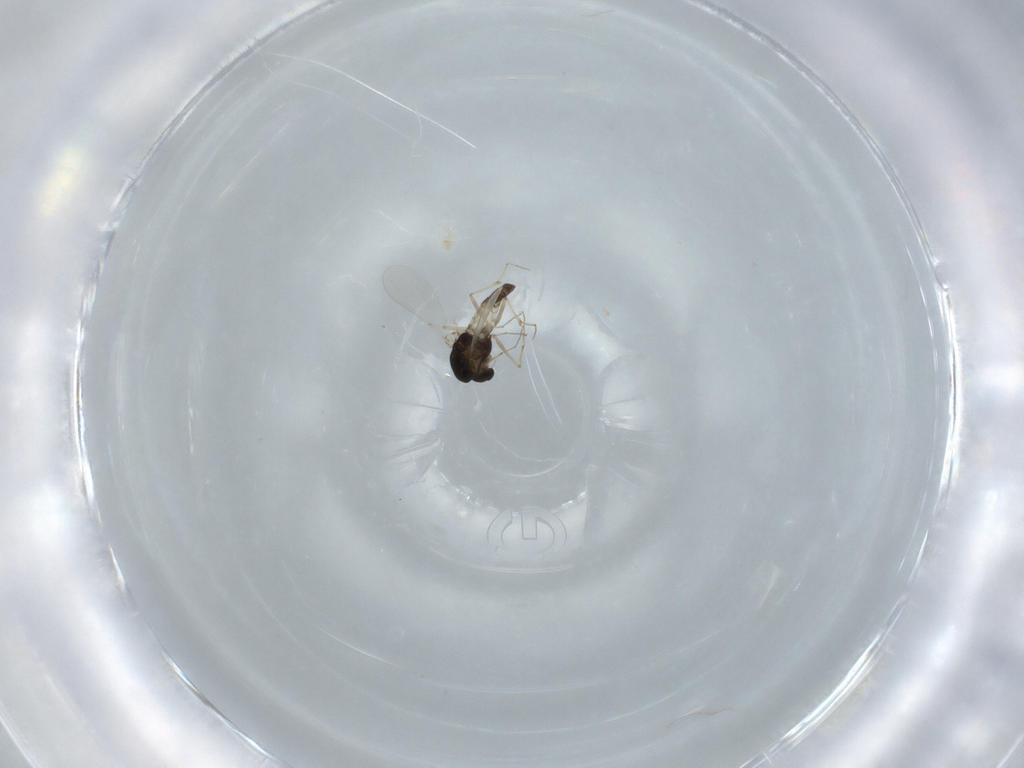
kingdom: Animalia
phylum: Arthropoda
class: Insecta
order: Diptera
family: Chironomidae
